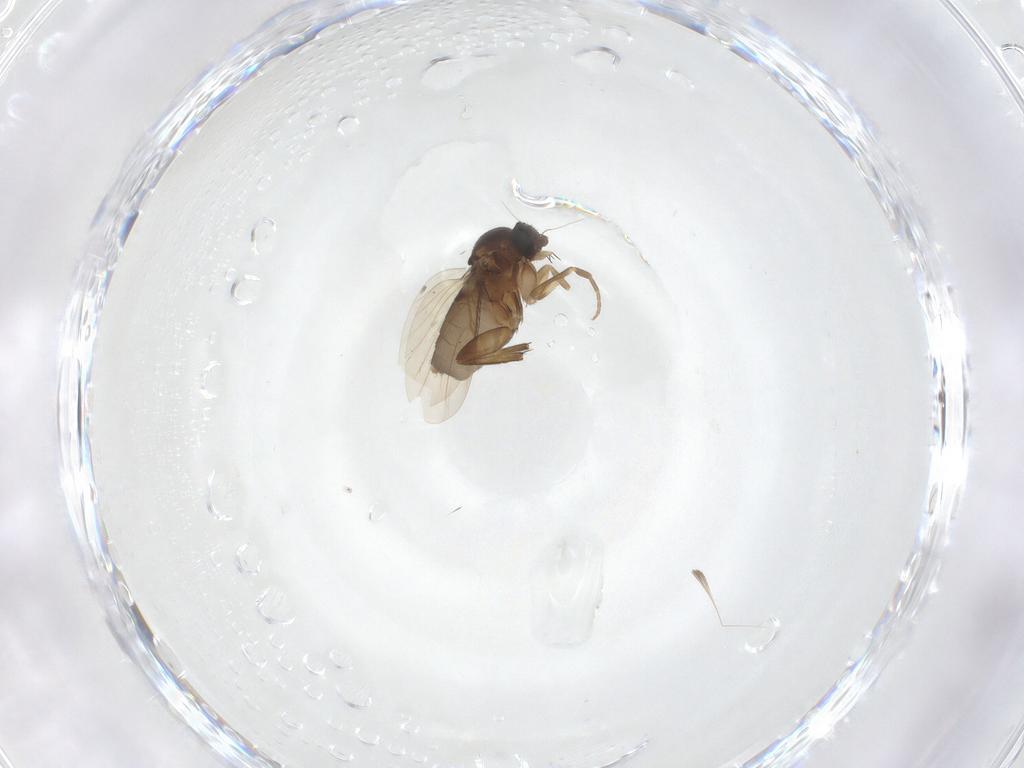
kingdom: Animalia
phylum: Arthropoda
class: Insecta
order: Diptera
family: Phoridae
